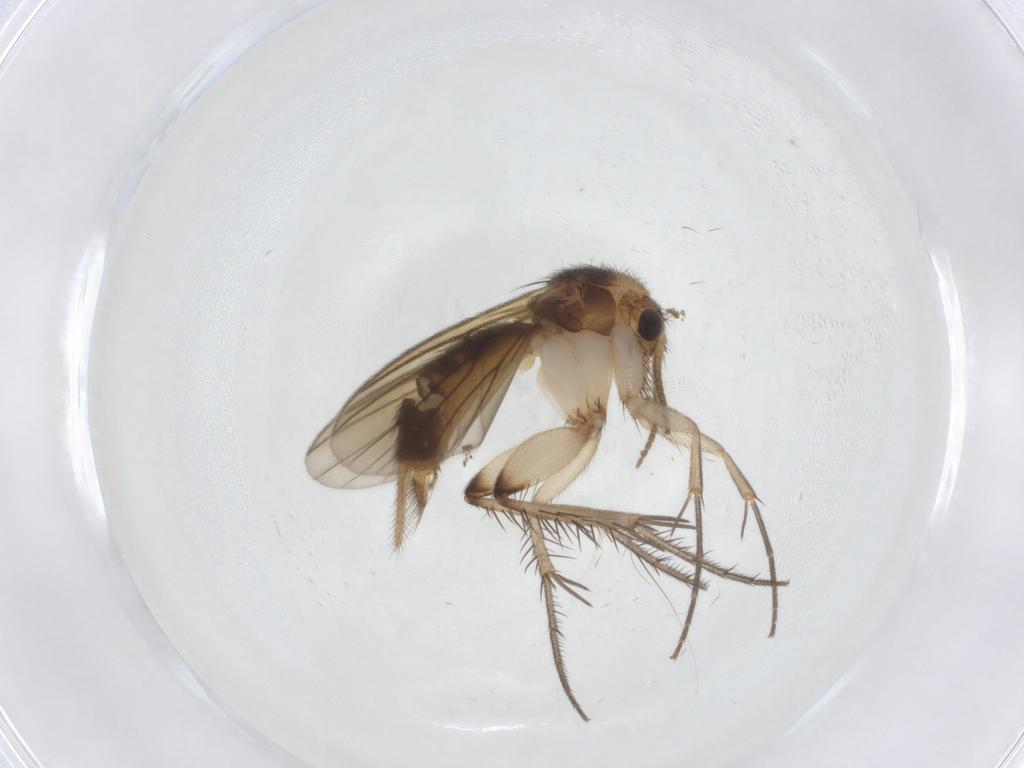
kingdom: Animalia
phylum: Arthropoda
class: Insecta
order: Diptera
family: Mycetophilidae
